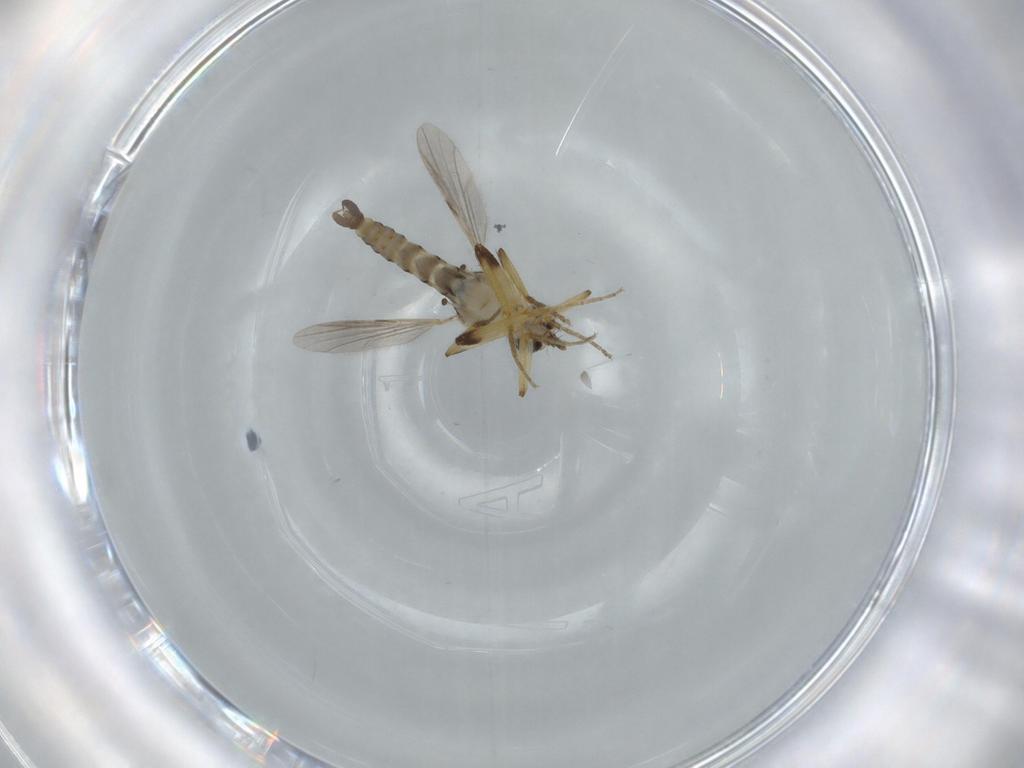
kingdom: Animalia
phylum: Arthropoda
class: Insecta
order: Diptera
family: Cecidomyiidae
